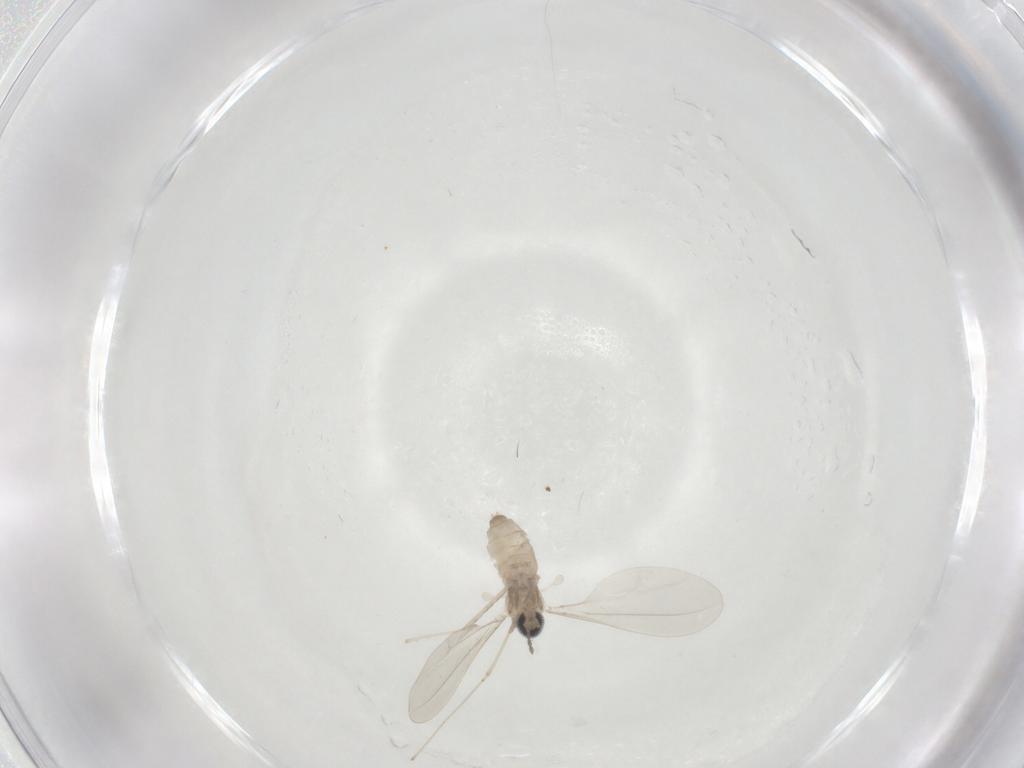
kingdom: Animalia
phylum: Arthropoda
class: Insecta
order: Diptera
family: Cecidomyiidae
